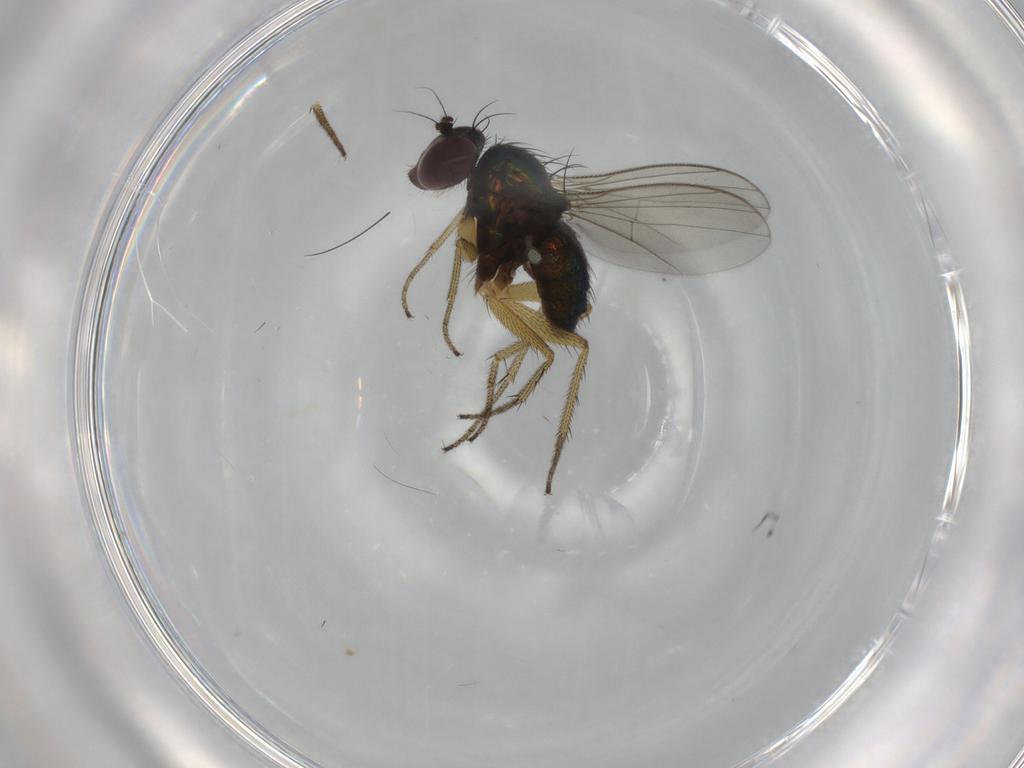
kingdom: Animalia
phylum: Arthropoda
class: Insecta
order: Diptera
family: Dolichopodidae
